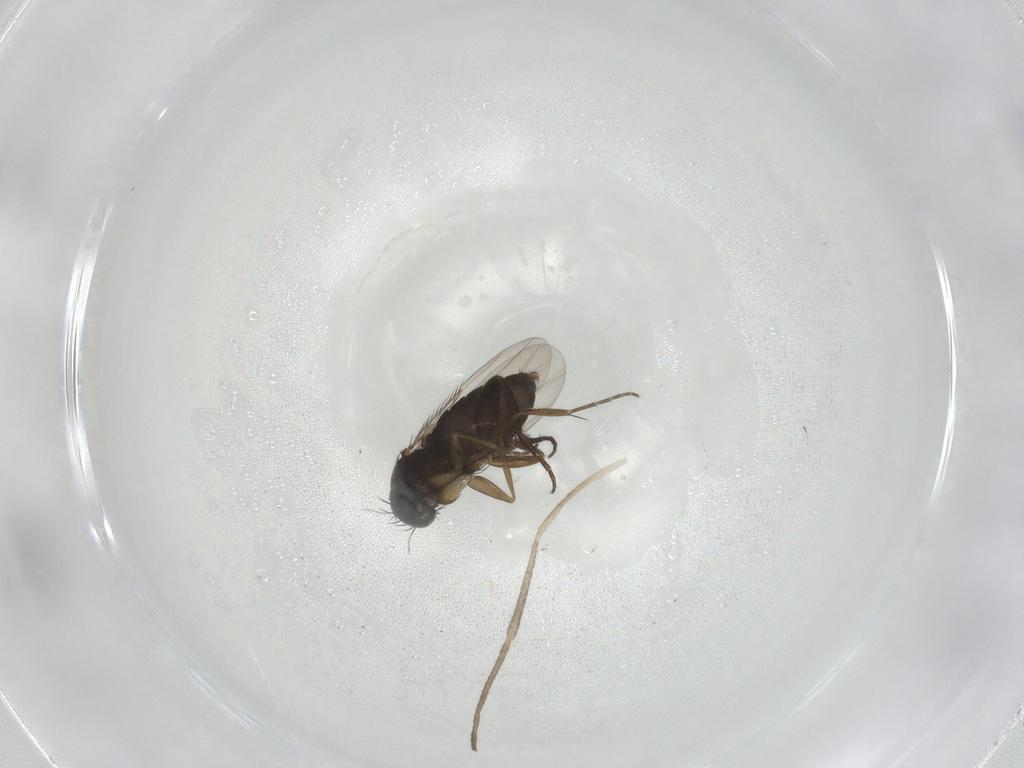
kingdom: Animalia
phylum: Arthropoda
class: Insecta
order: Diptera
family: Phoridae
